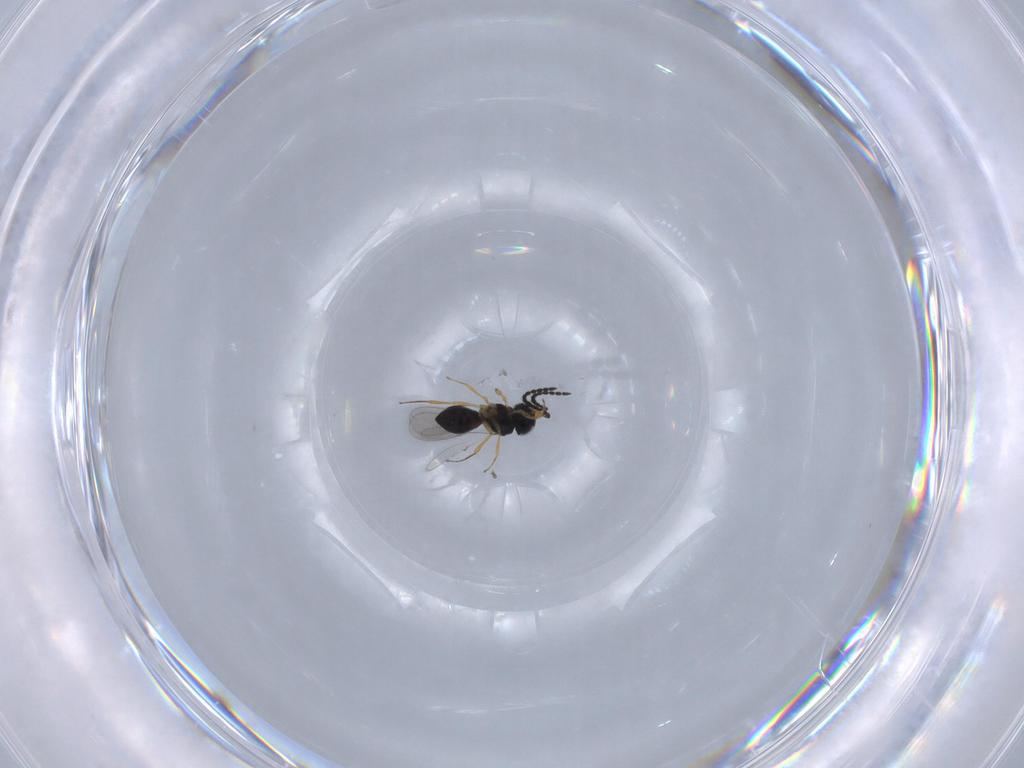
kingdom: Animalia
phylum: Arthropoda
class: Insecta
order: Hymenoptera
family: Scelionidae
